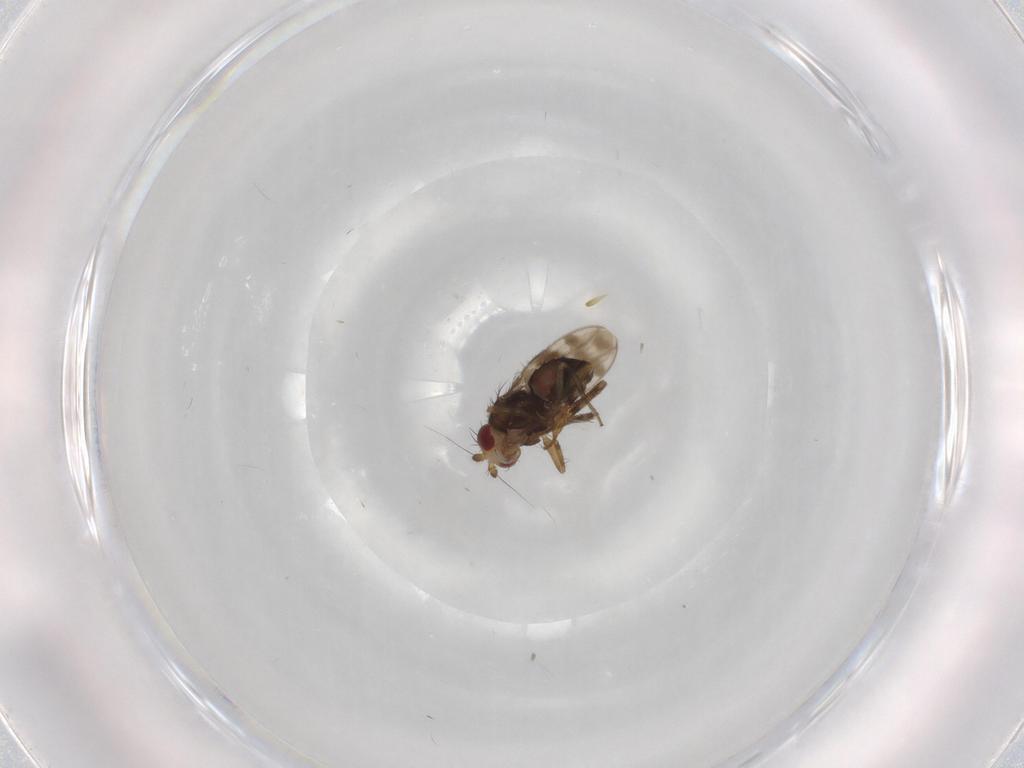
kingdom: Animalia
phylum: Arthropoda
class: Insecta
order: Diptera
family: Sphaeroceridae
